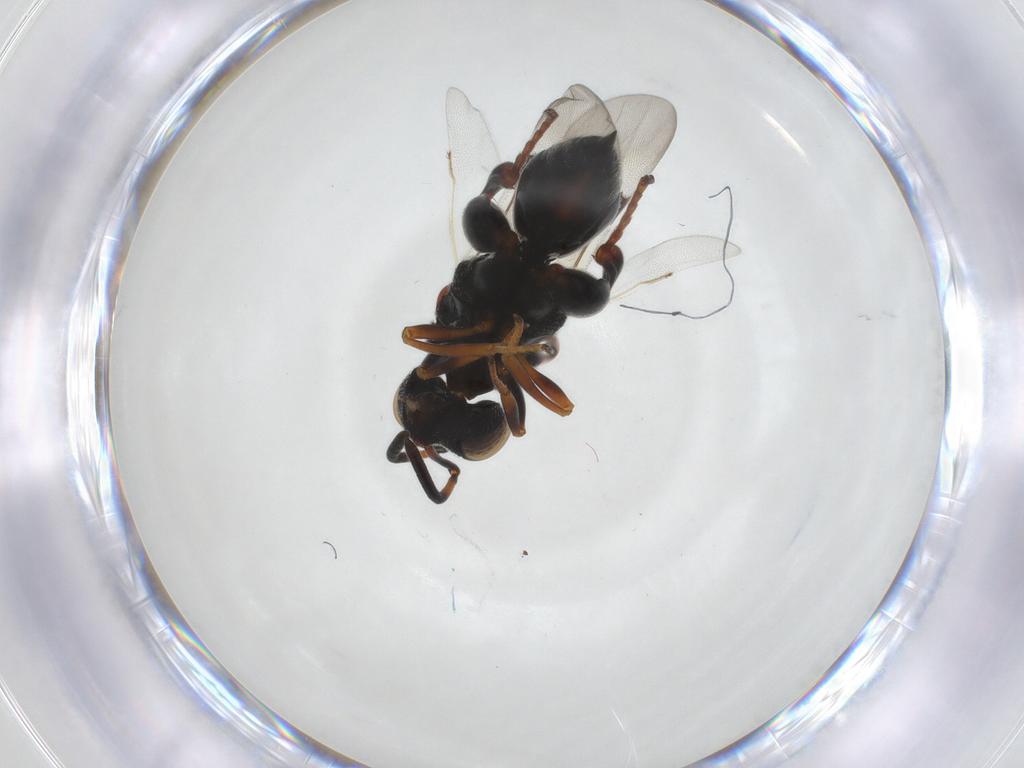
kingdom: Animalia
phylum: Arthropoda
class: Insecta
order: Hymenoptera
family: Braconidae
